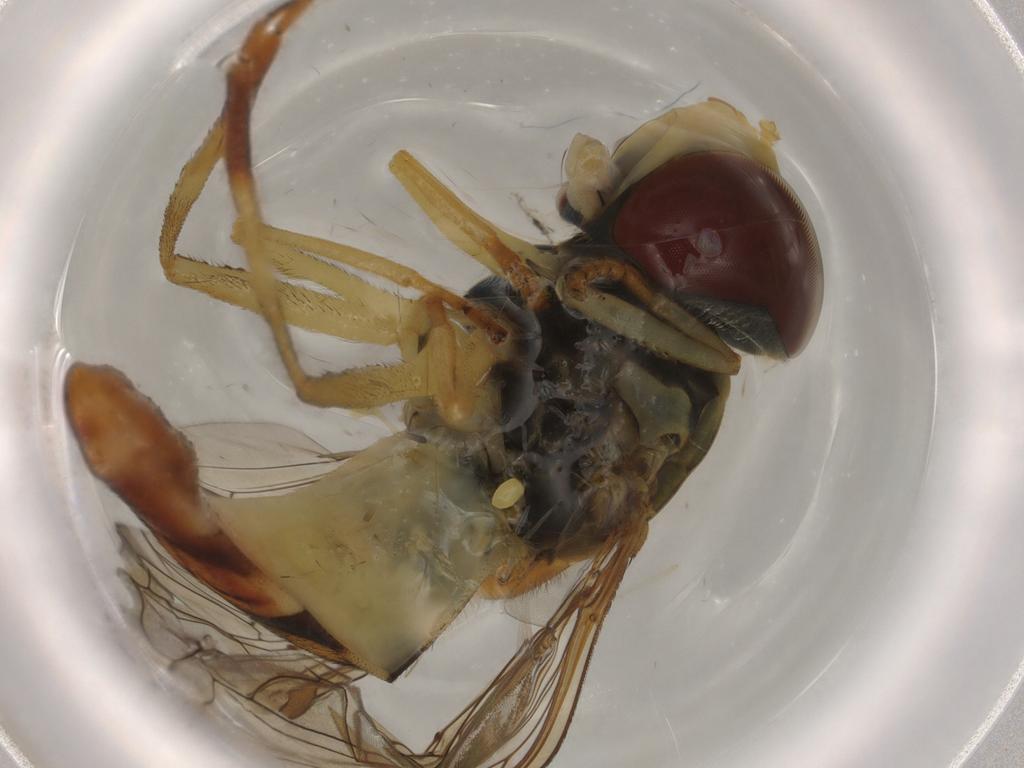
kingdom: Animalia
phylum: Arthropoda
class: Insecta
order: Diptera
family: Syrphidae
